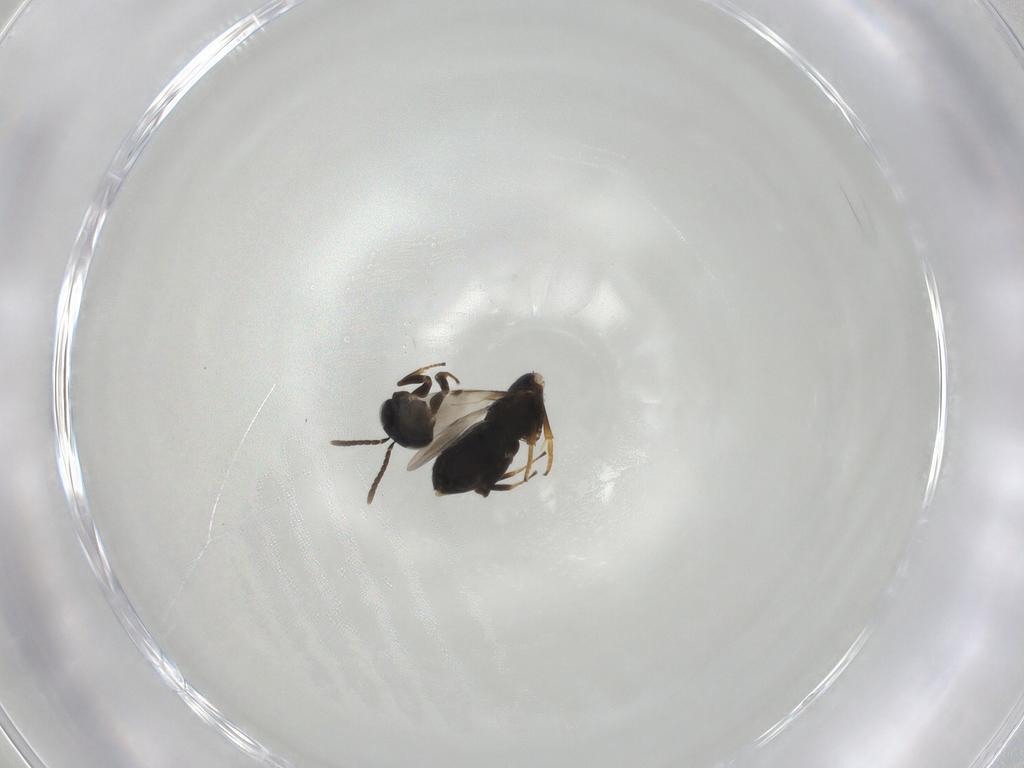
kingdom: Animalia
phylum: Arthropoda
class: Insecta
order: Hymenoptera
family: Encyrtidae
